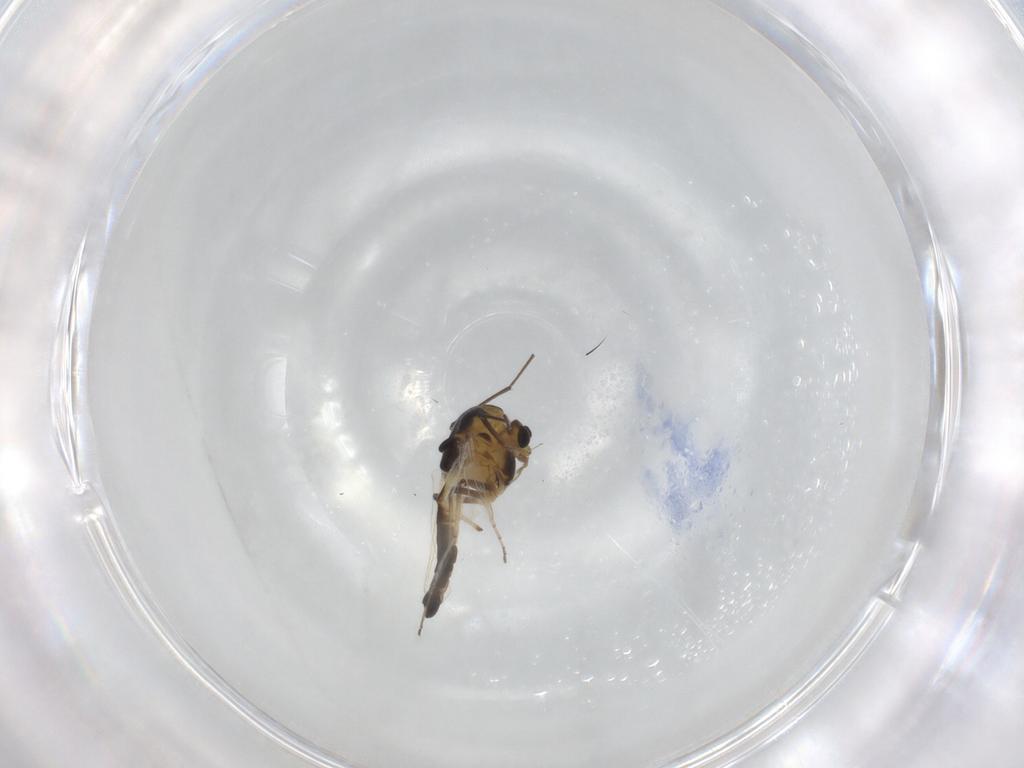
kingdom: Animalia
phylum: Arthropoda
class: Insecta
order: Diptera
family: Chironomidae
